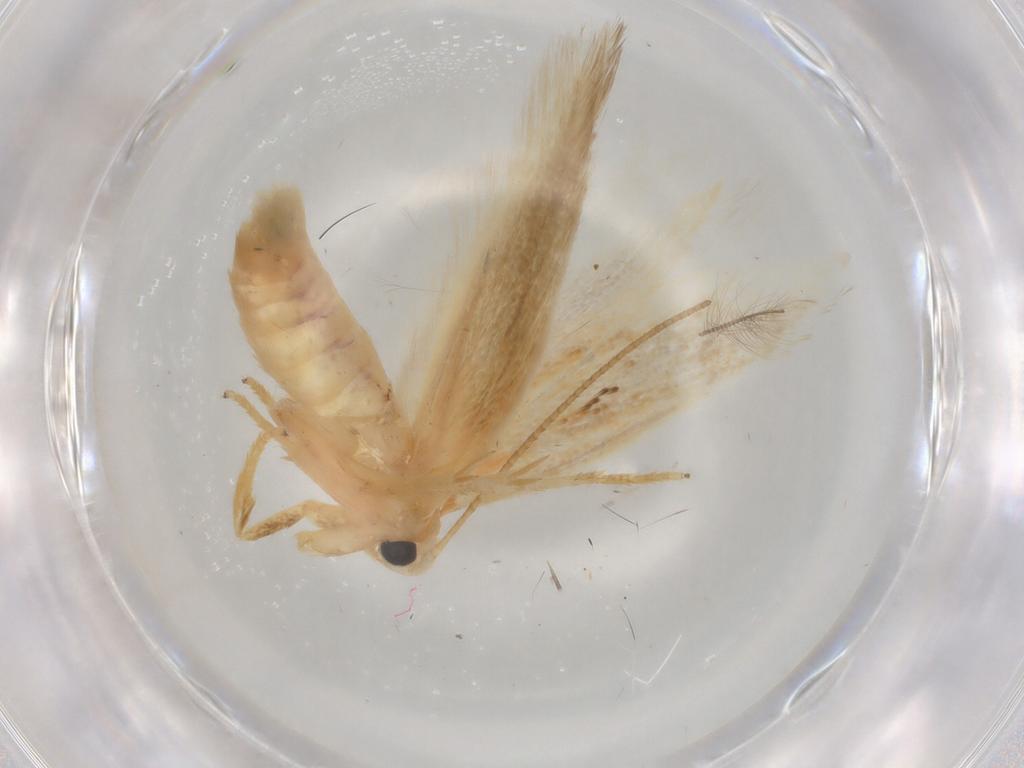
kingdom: Animalia
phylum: Arthropoda
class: Insecta
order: Lepidoptera
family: Geometridae
